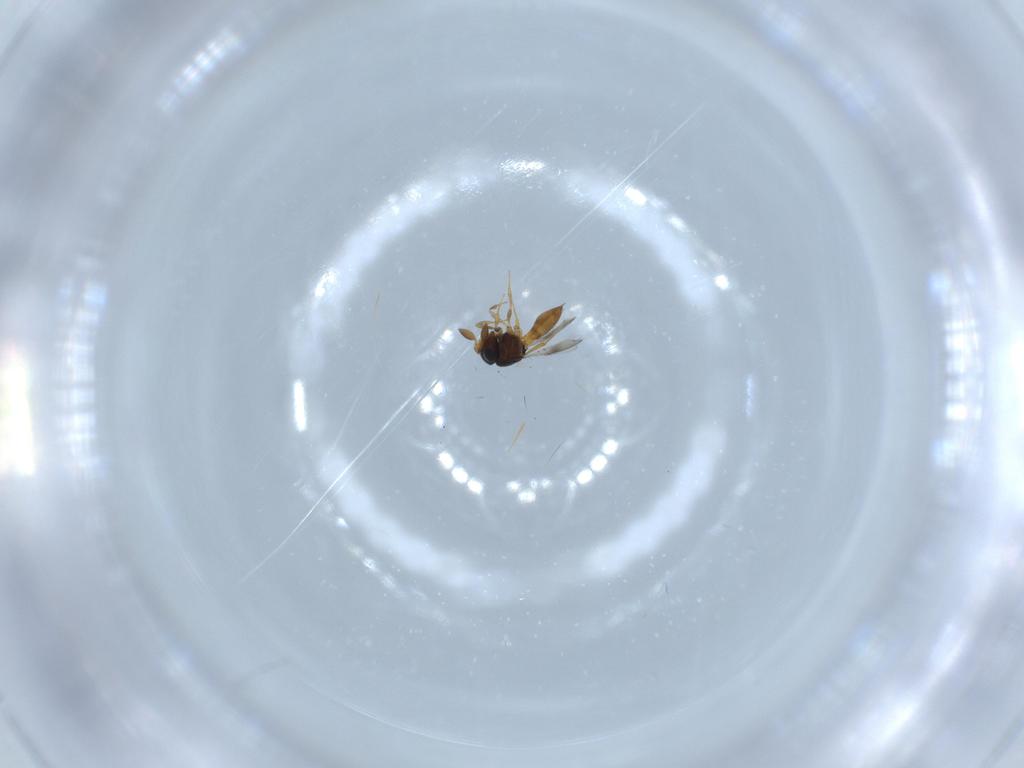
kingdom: Animalia
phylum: Arthropoda
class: Insecta
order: Hymenoptera
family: Scelionidae
